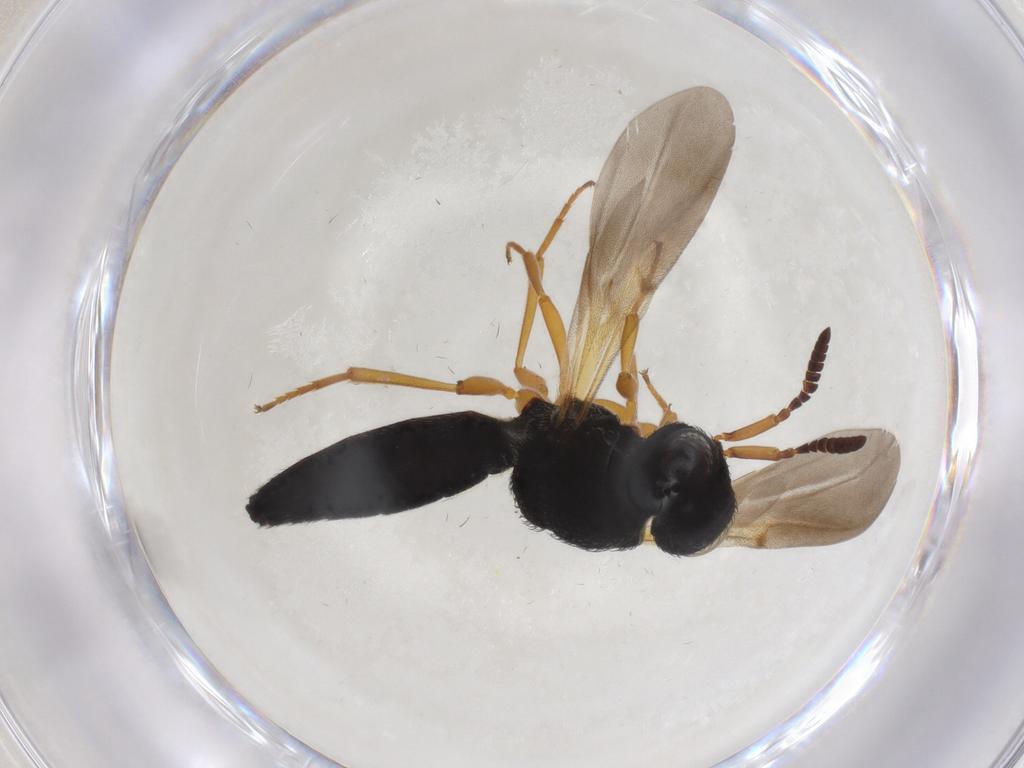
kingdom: Animalia
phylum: Arthropoda
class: Insecta
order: Hymenoptera
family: Scelionidae
